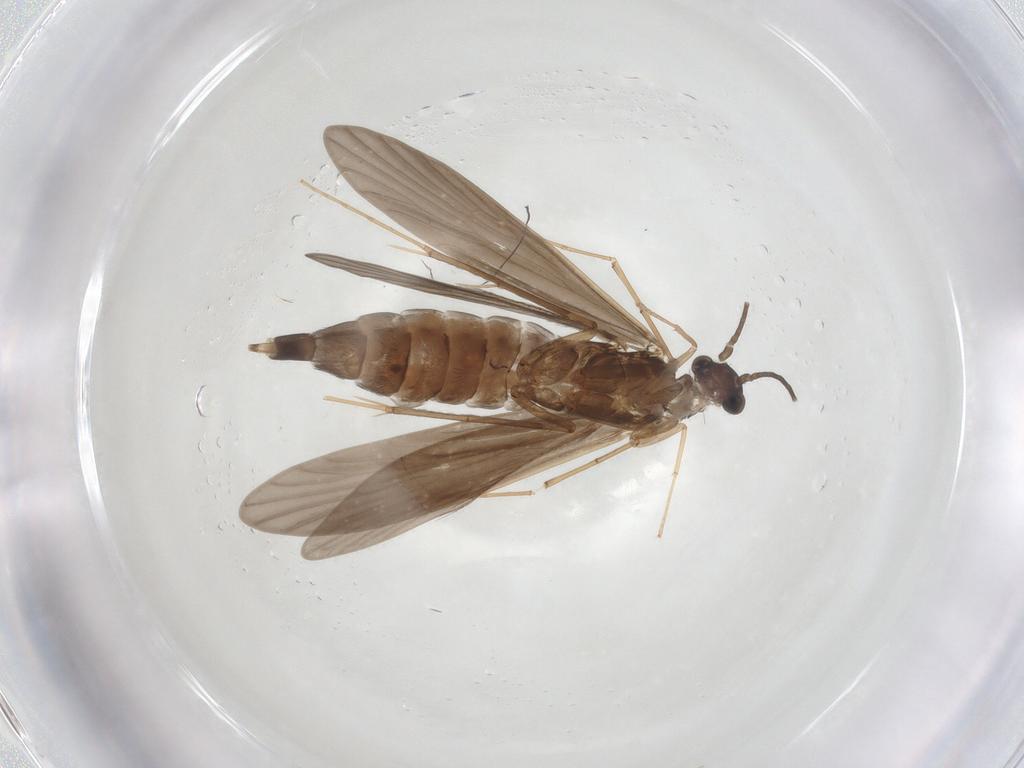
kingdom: Animalia
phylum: Arthropoda
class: Insecta
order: Trichoptera
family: Xiphocentronidae
